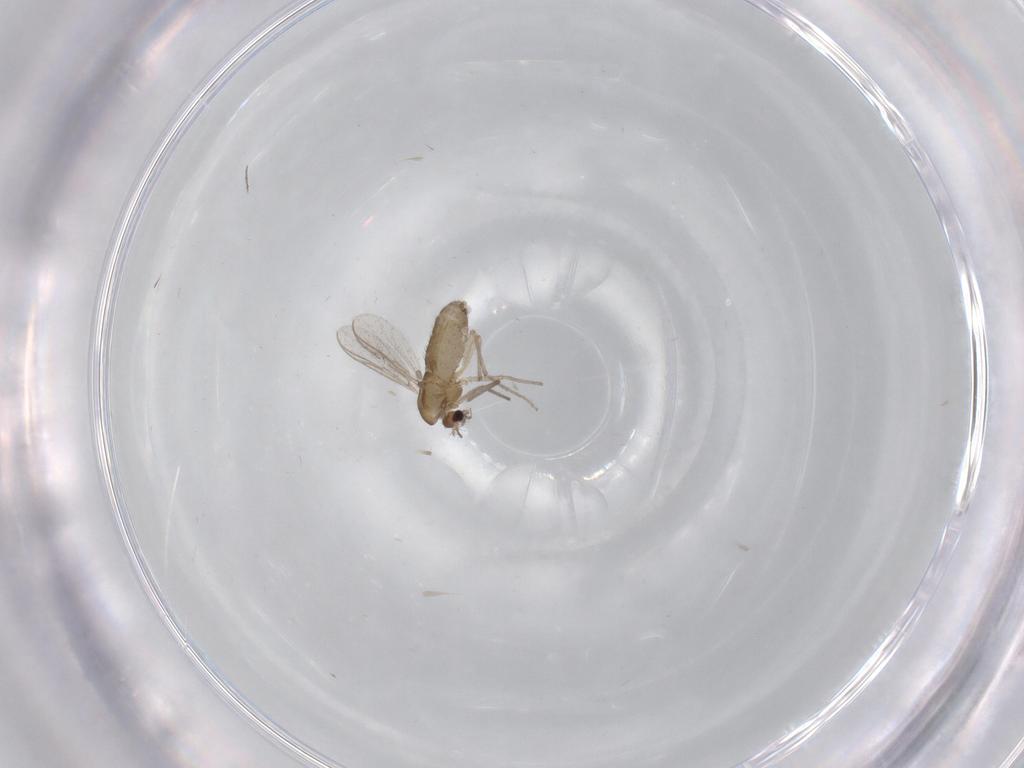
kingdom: Animalia
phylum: Arthropoda
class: Insecta
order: Diptera
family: Chironomidae
